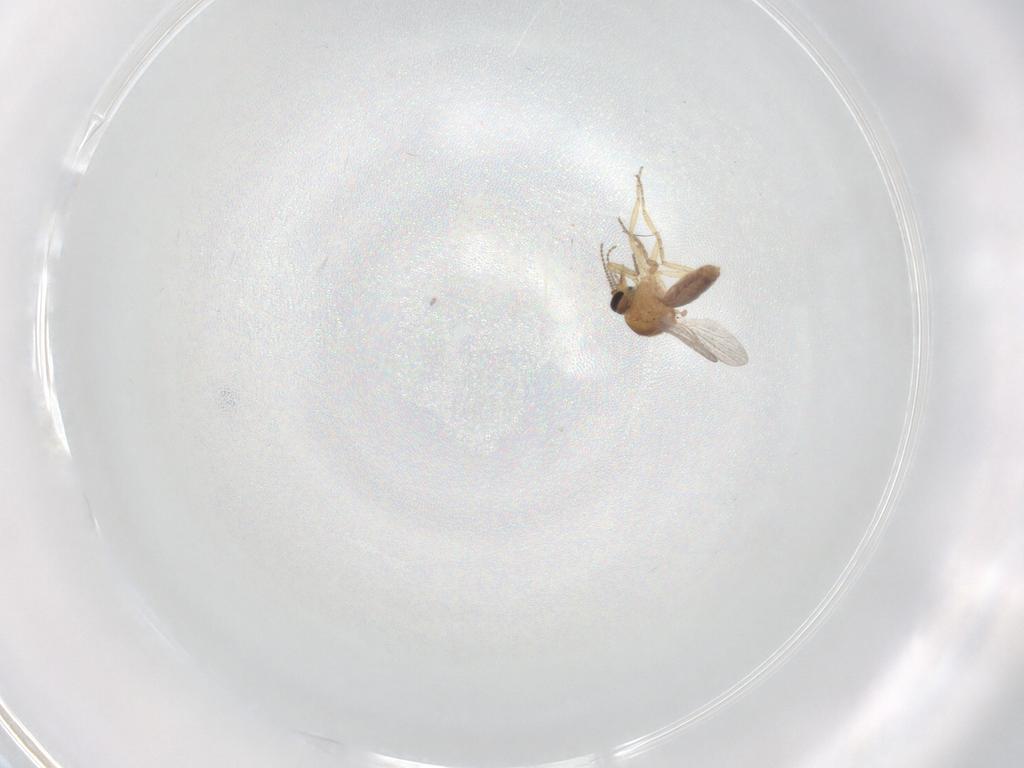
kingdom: Animalia
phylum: Arthropoda
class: Insecta
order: Diptera
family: Ceratopogonidae
